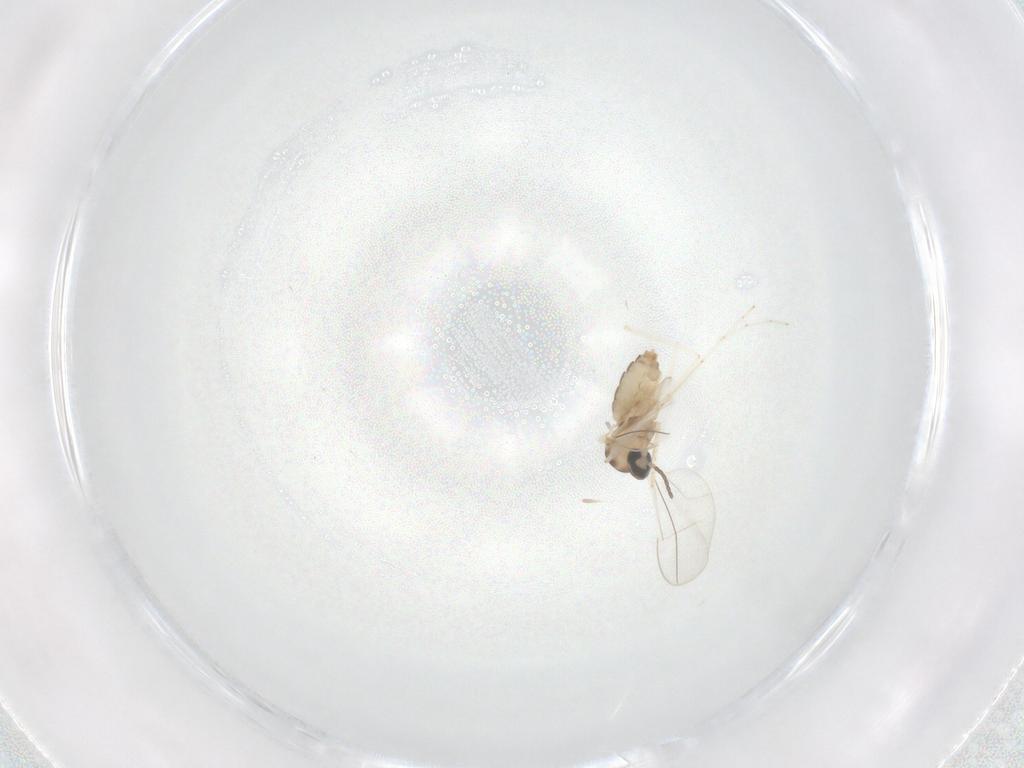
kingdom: Animalia
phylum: Arthropoda
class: Insecta
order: Diptera
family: Cecidomyiidae
